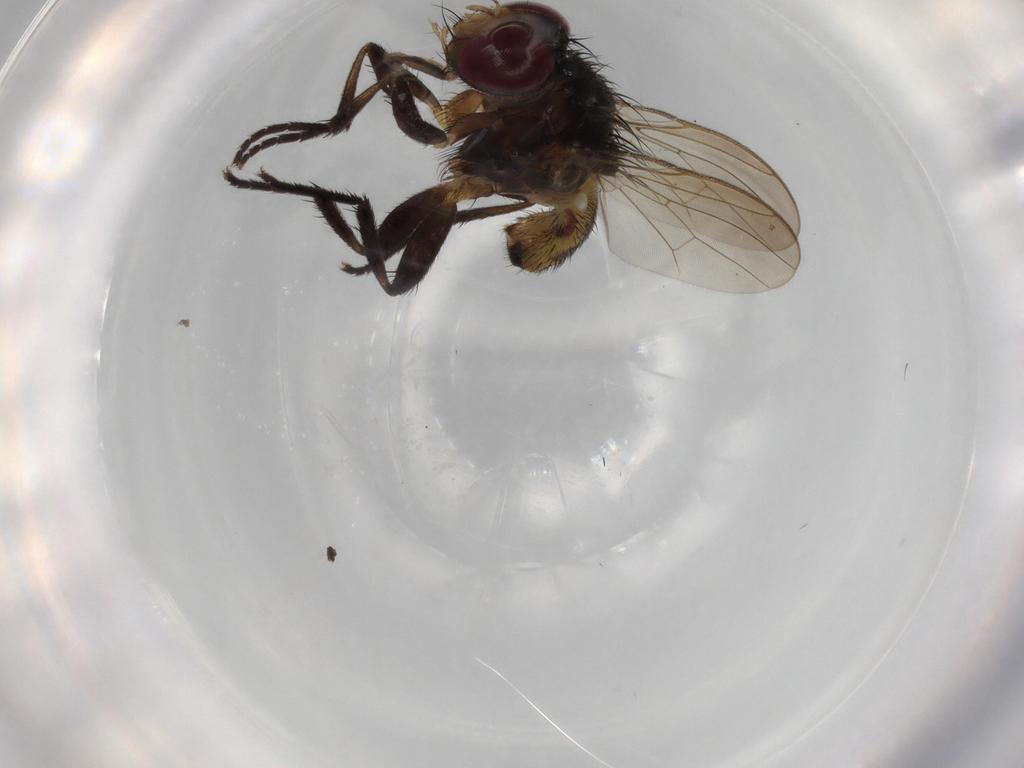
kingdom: Animalia
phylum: Arthropoda
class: Insecta
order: Diptera
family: Anthomyiidae
